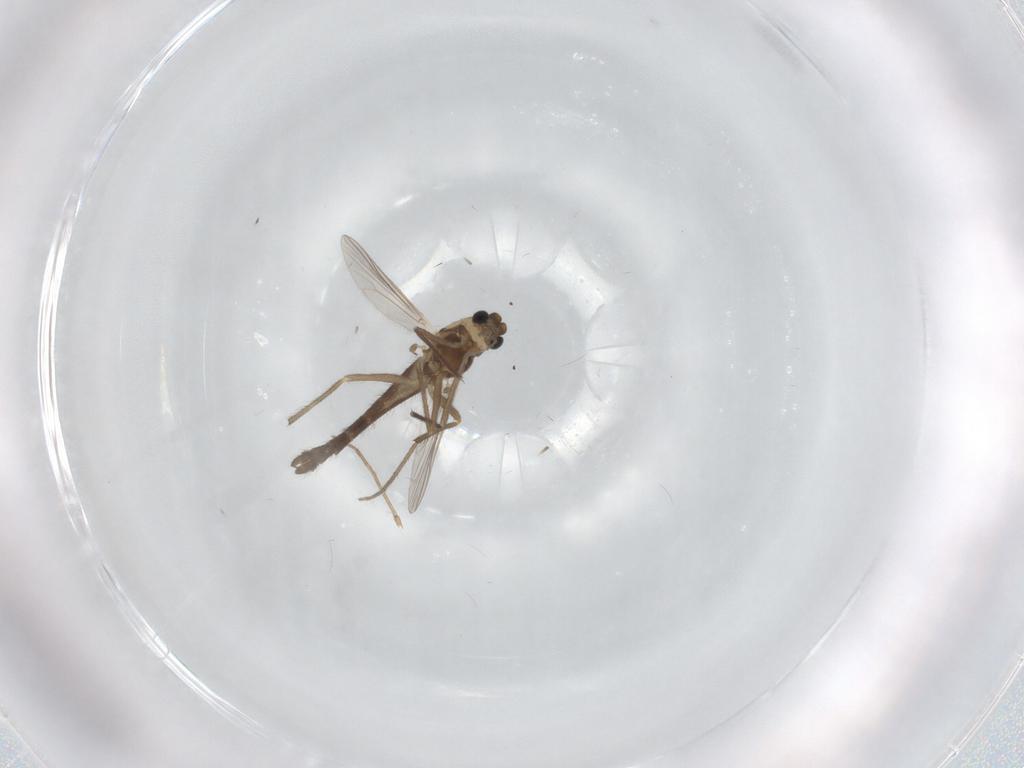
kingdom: Animalia
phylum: Arthropoda
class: Insecta
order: Diptera
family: Chironomidae
